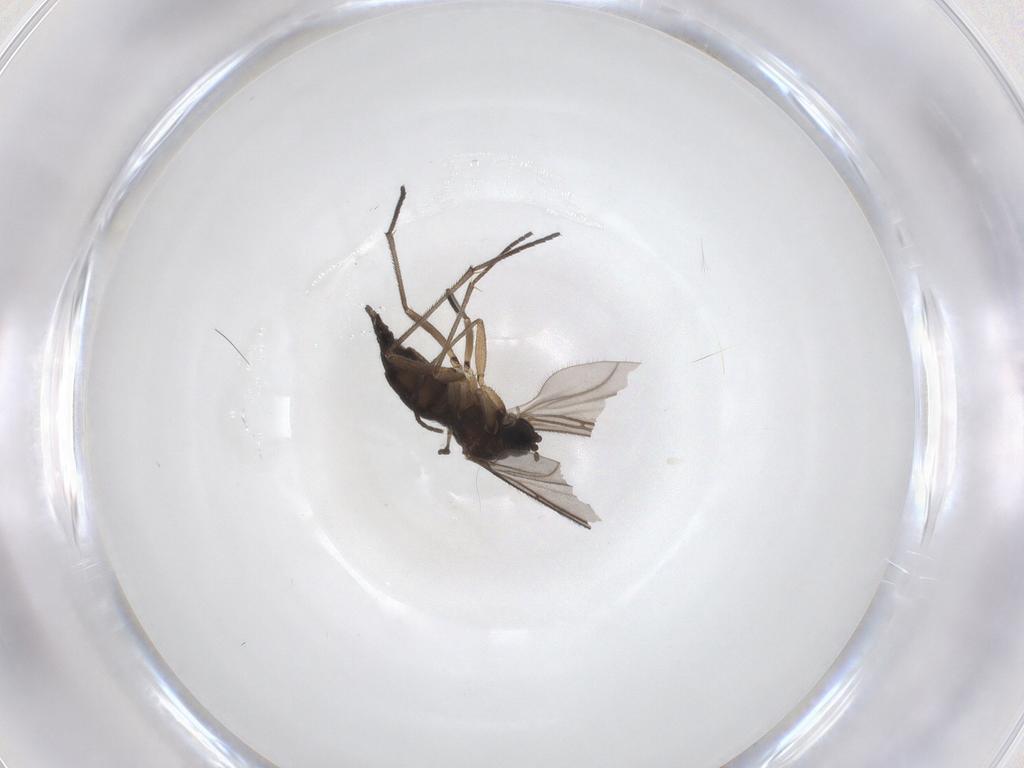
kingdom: Animalia
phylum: Arthropoda
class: Insecta
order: Diptera
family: Sciaridae
